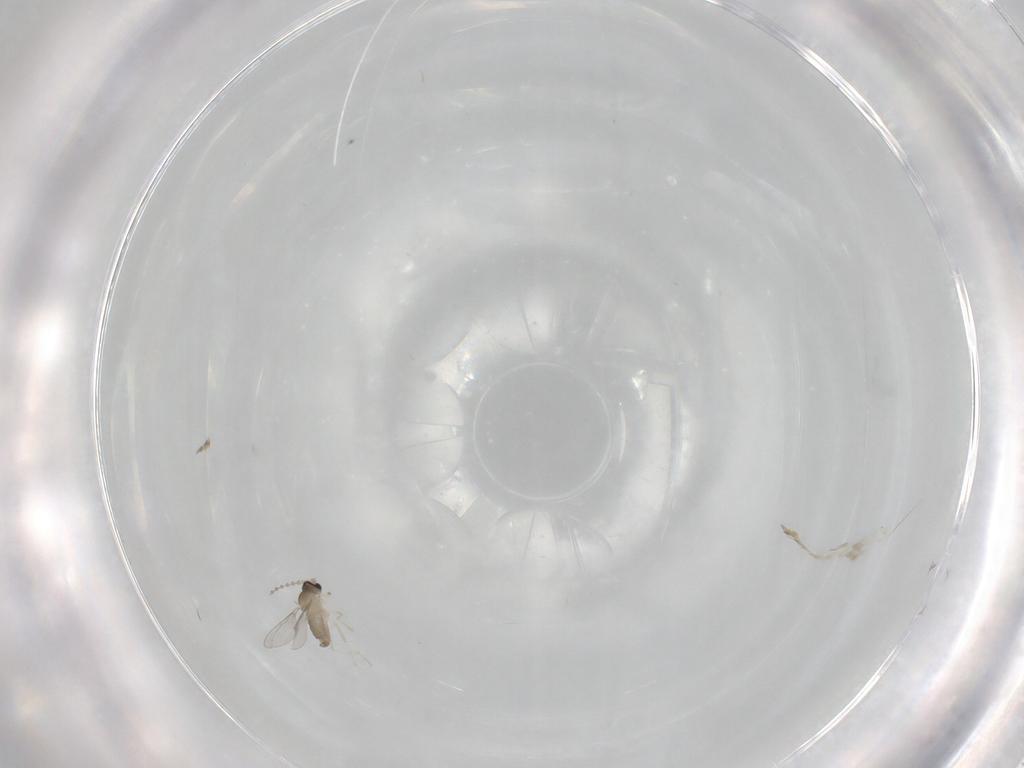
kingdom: Animalia
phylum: Arthropoda
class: Insecta
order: Diptera
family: Cecidomyiidae
